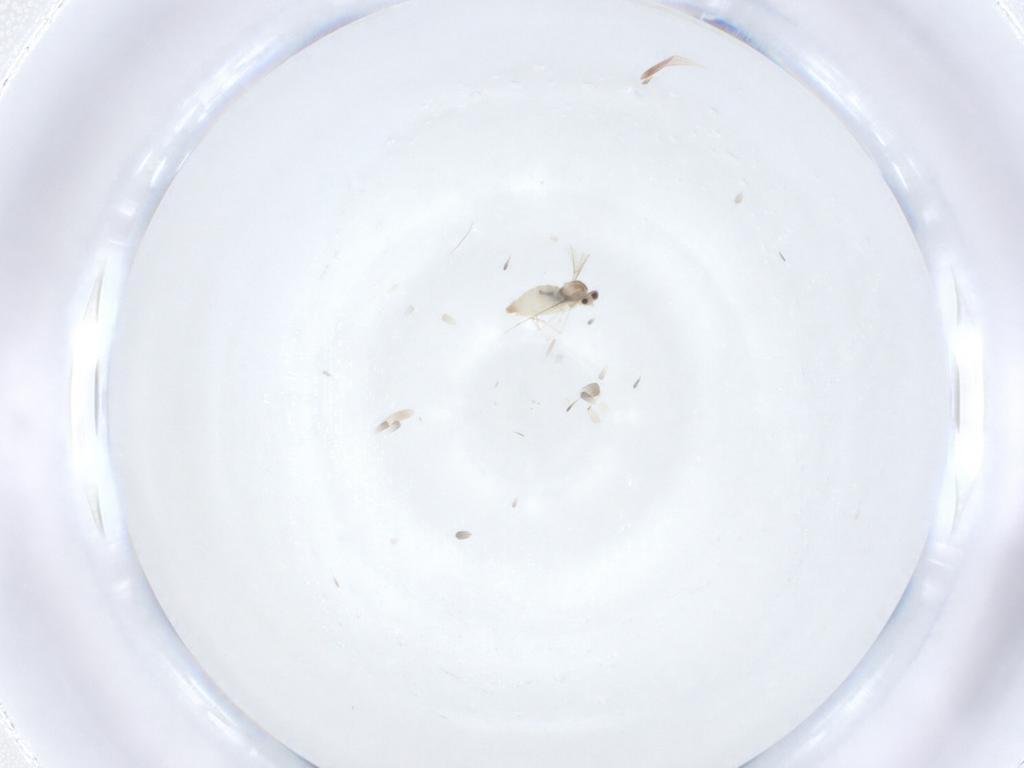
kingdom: Animalia
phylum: Arthropoda
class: Insecta
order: Diptera
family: Cecidomyiidae
